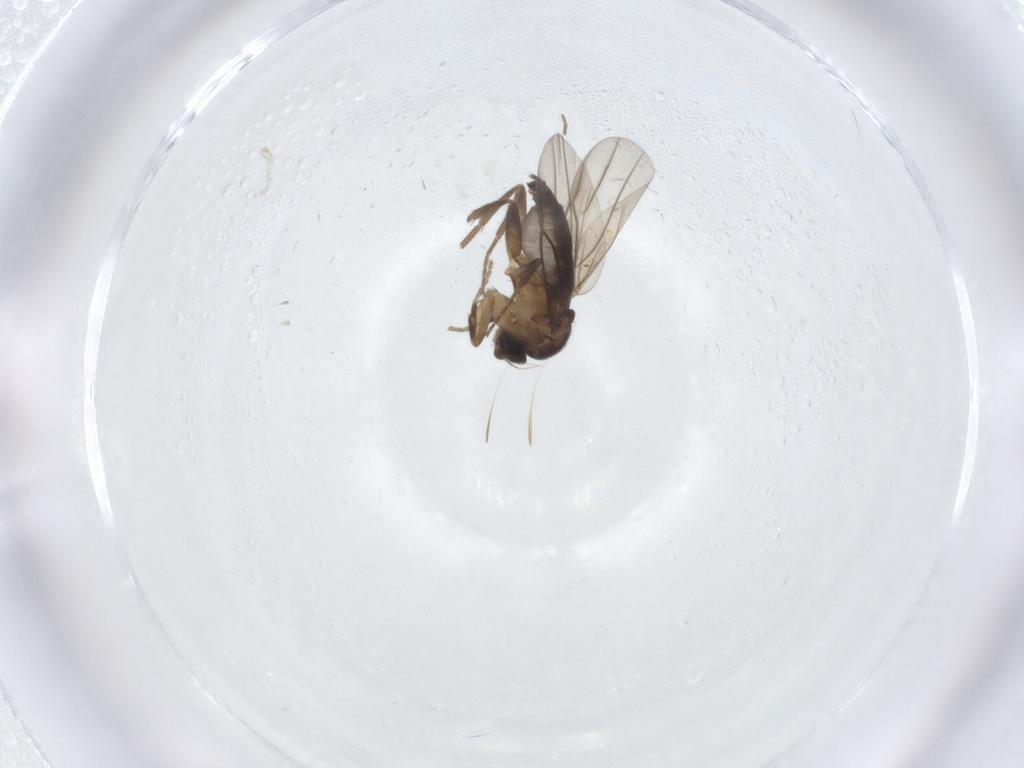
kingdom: Animalia
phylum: Arthropoda
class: Insecta
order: Diptera
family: Phoridae
